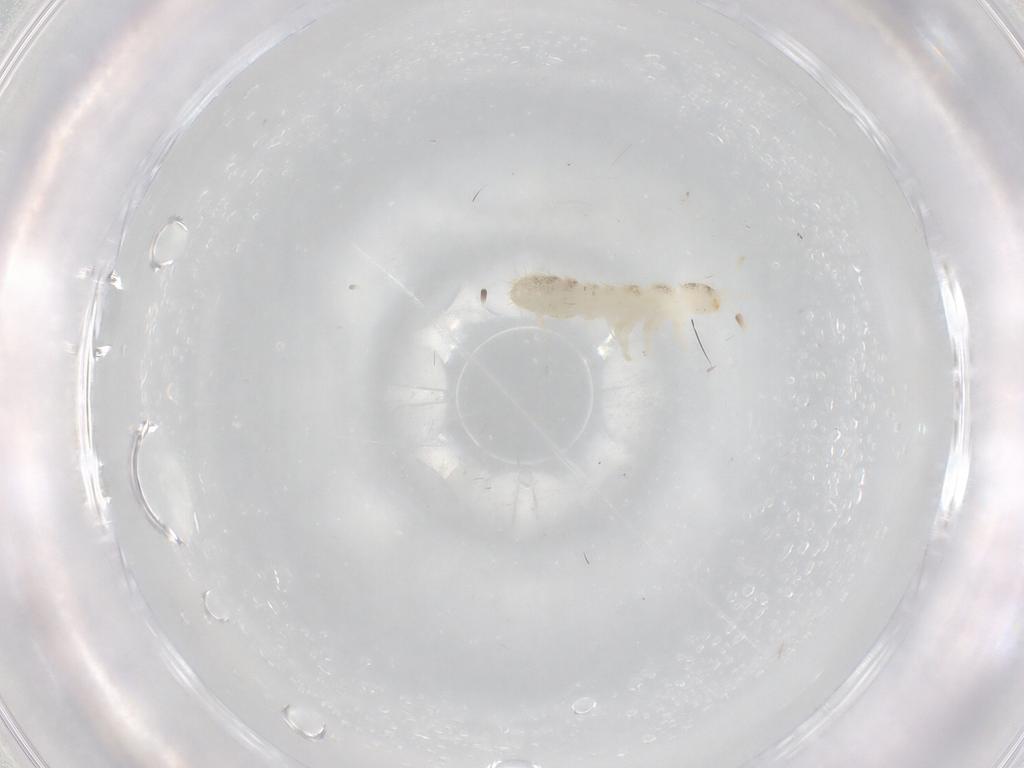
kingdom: Animalia
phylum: Arthropoda
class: Collembola
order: Entomobryomorpha
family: Isotomidae
